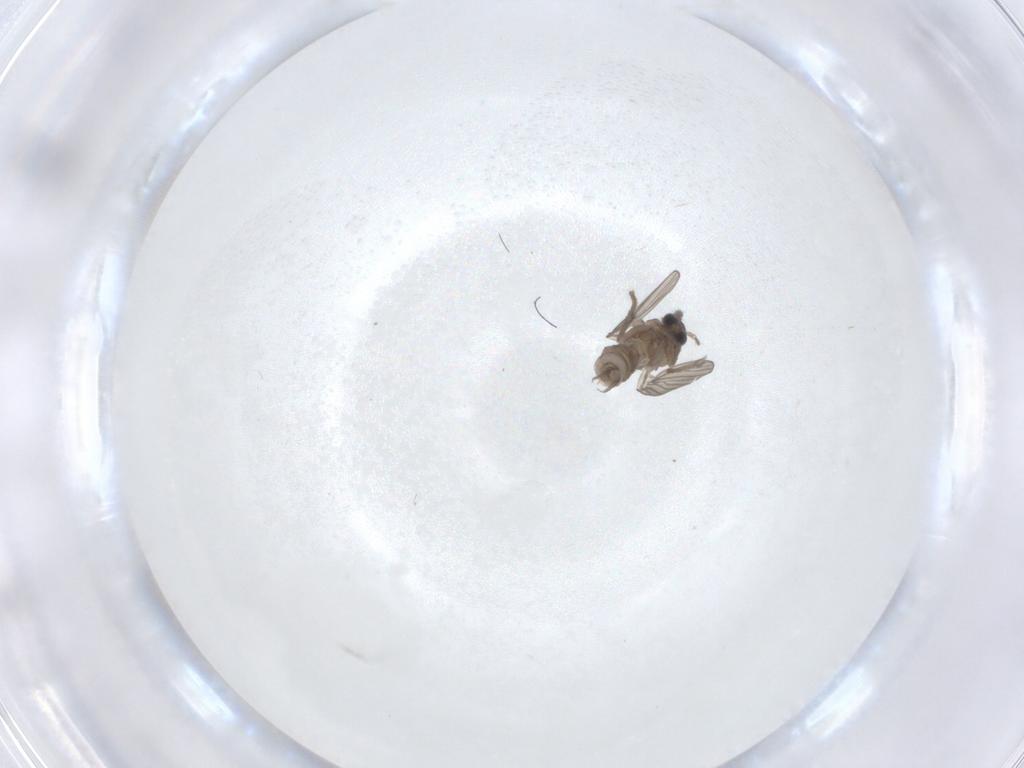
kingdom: Animalia
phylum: Arthropoda
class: Insecta
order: Diptera
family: Psychodidae
